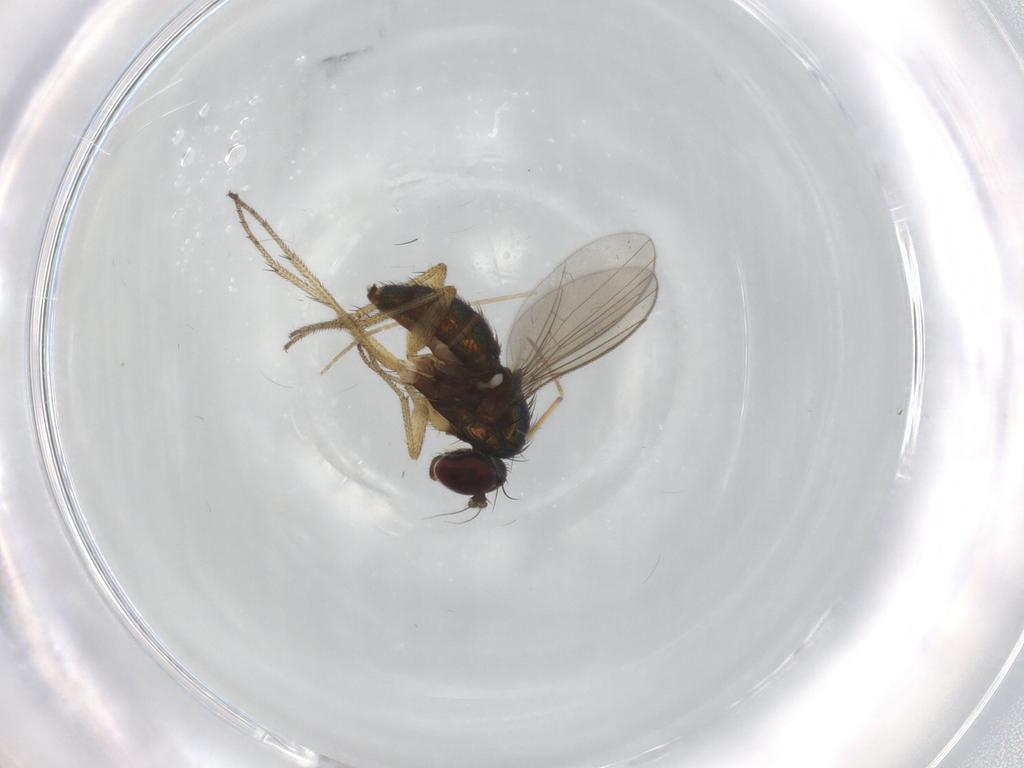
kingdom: Animalia
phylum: Arthropoda
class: Insecta
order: Diptera
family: Dolichopodidae
